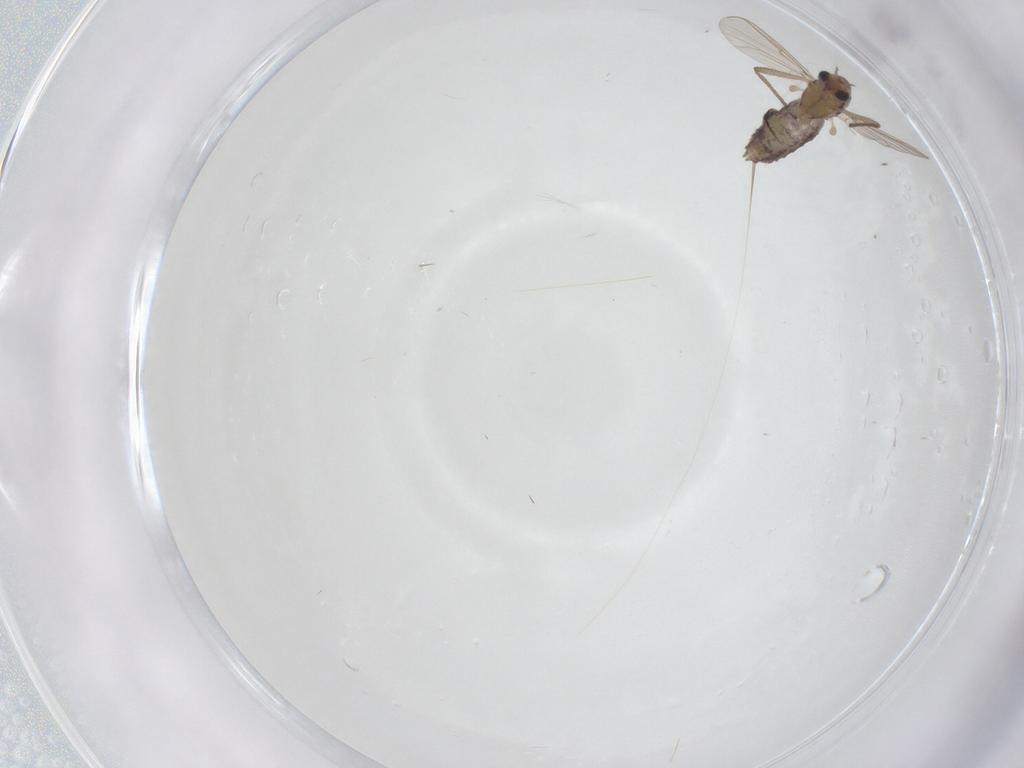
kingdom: Animalia
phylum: Arthropoda
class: Insecta
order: Diptera
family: Chironomidae
